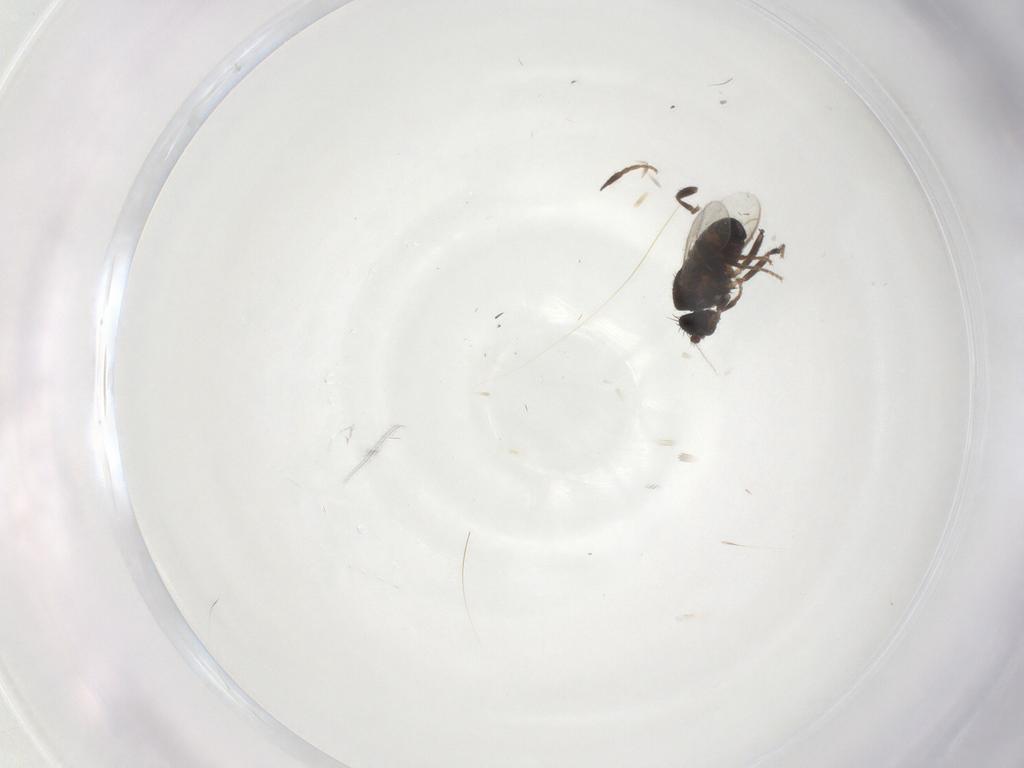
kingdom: Animalia
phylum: Arthropoda
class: Insecta
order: Diptera
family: Sphaeroceridae
